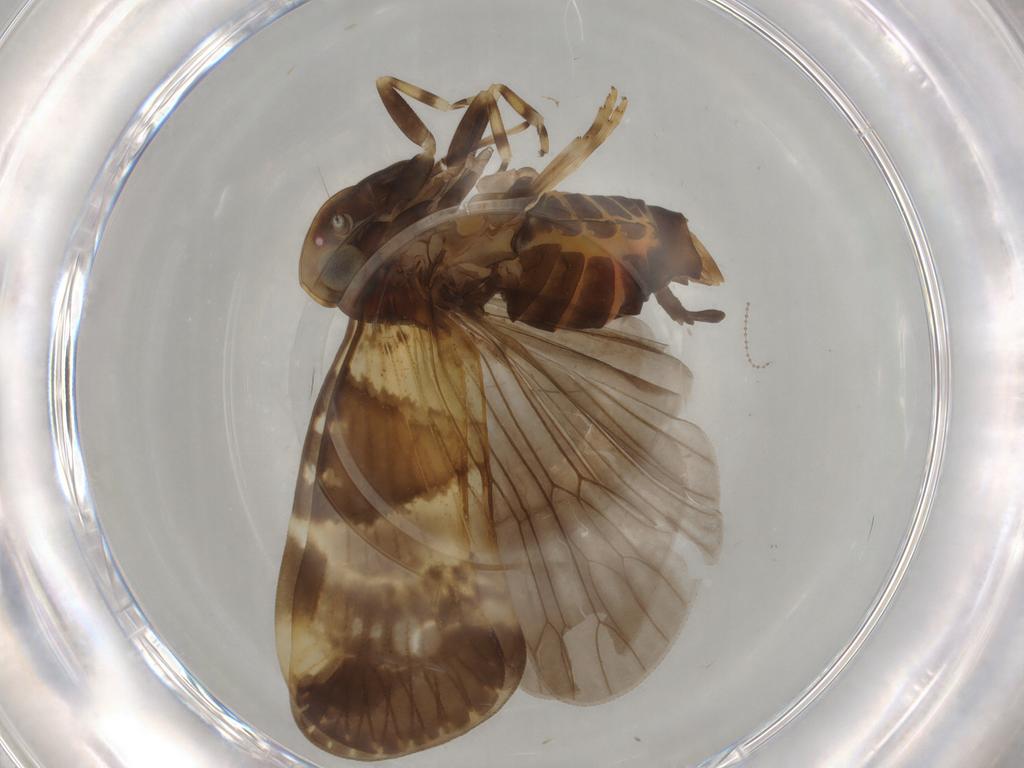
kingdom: Animalia
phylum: Arthropoda
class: Insecta
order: Hemiptera
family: Cixiidae
